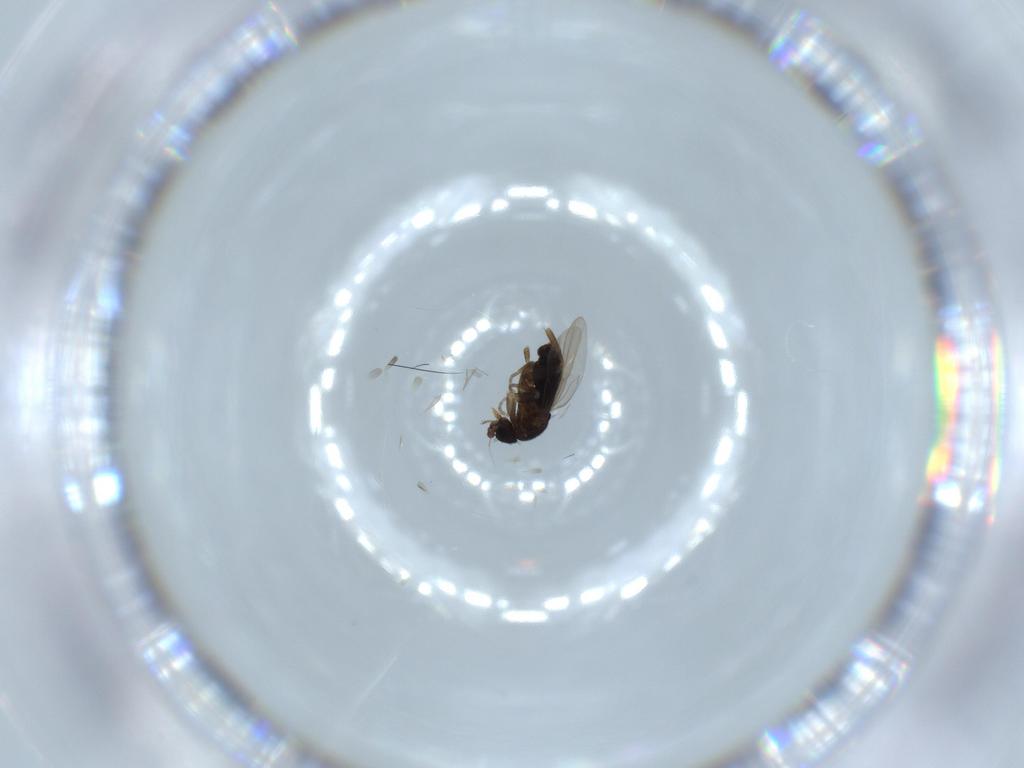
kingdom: Animalia
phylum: Arthropoda
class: Insecta
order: Diptera
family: Phoridae
